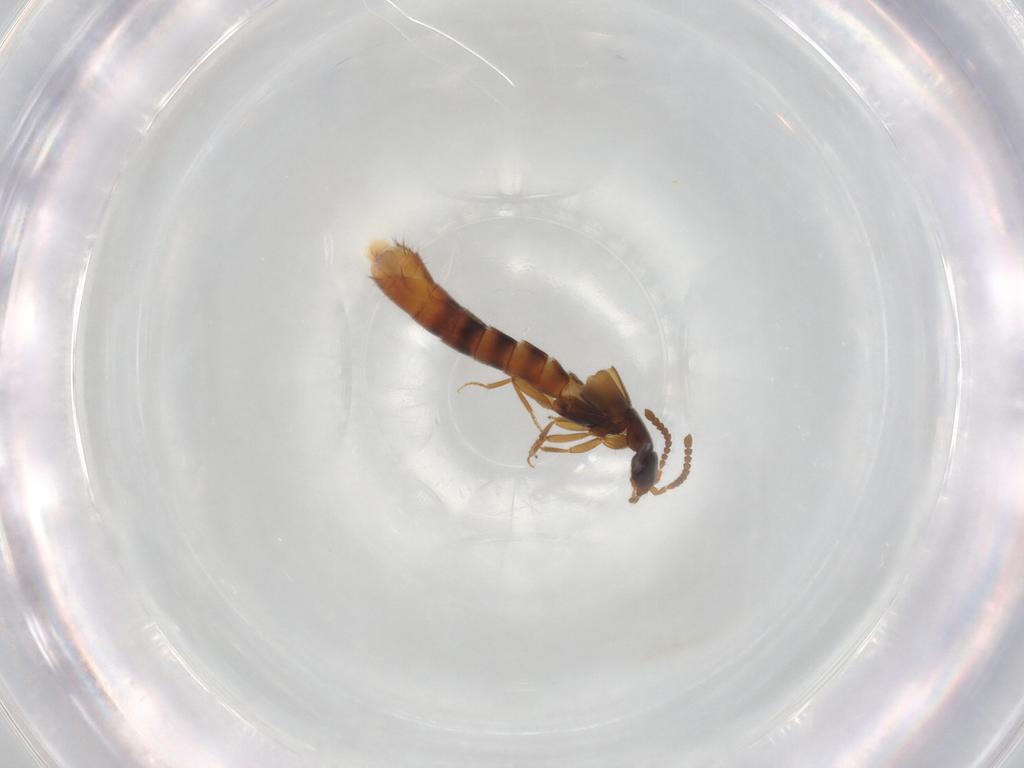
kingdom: Animalia
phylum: Arthropoda
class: Insecta
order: Coleoptera
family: Staphylinidae
